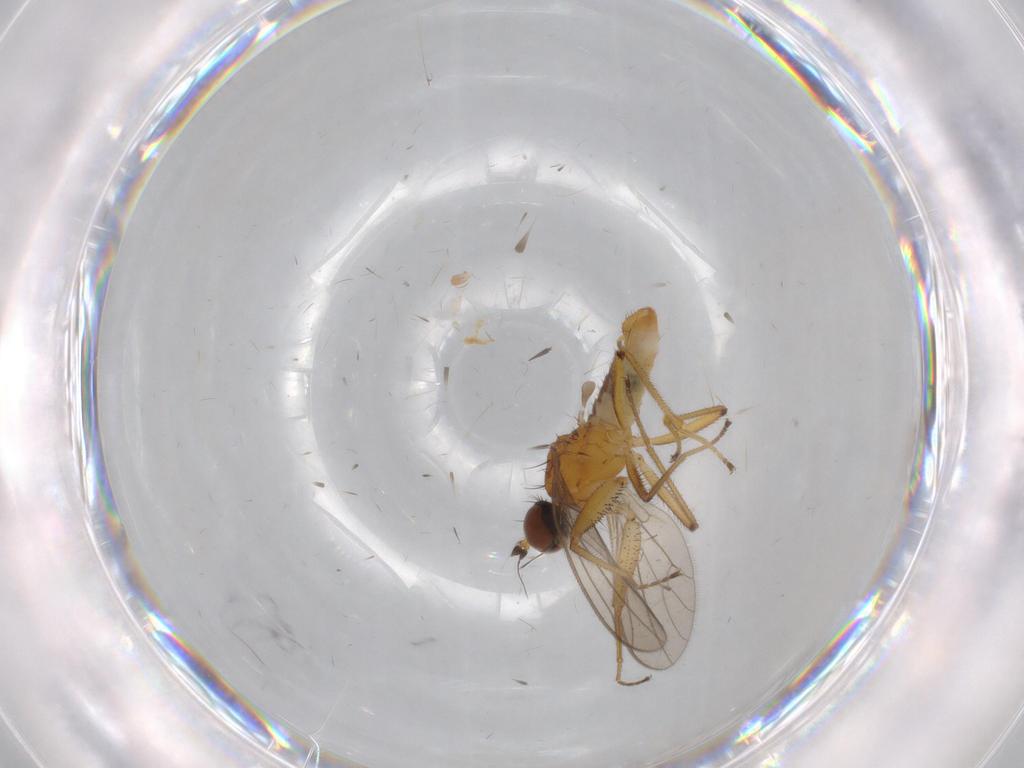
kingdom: Animalia
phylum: Arthropoda
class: Insecta
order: Diptera
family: Empididae
